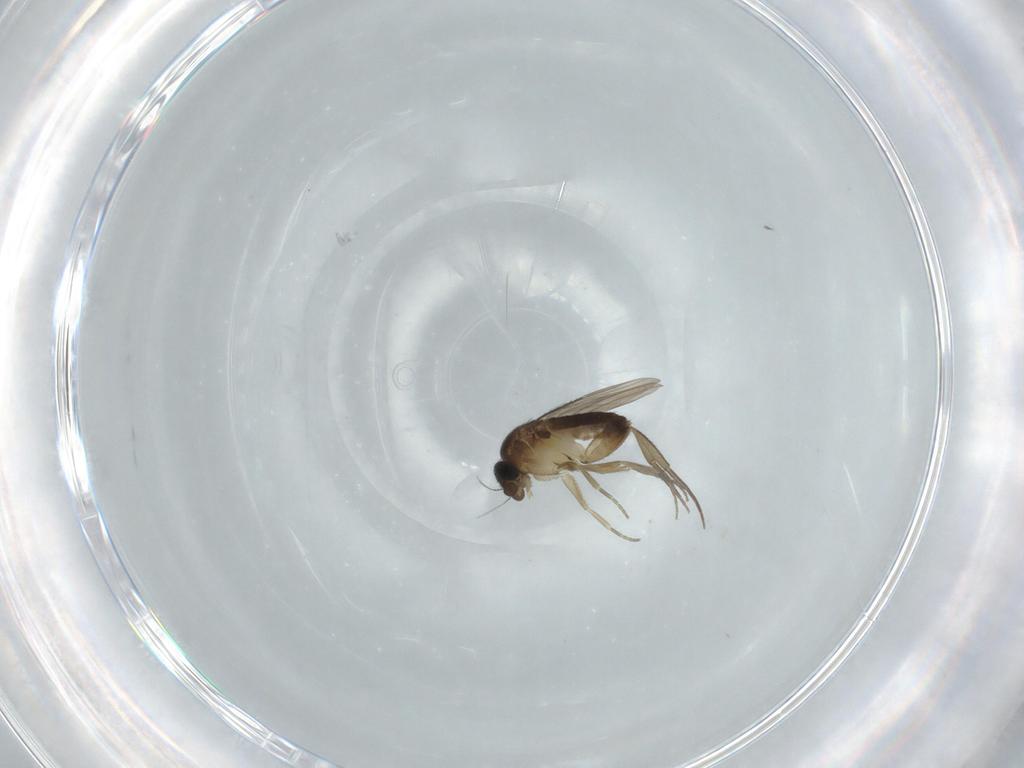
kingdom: Animalia
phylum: Arthropoda
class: Insecta
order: Diptera
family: Phoridae
